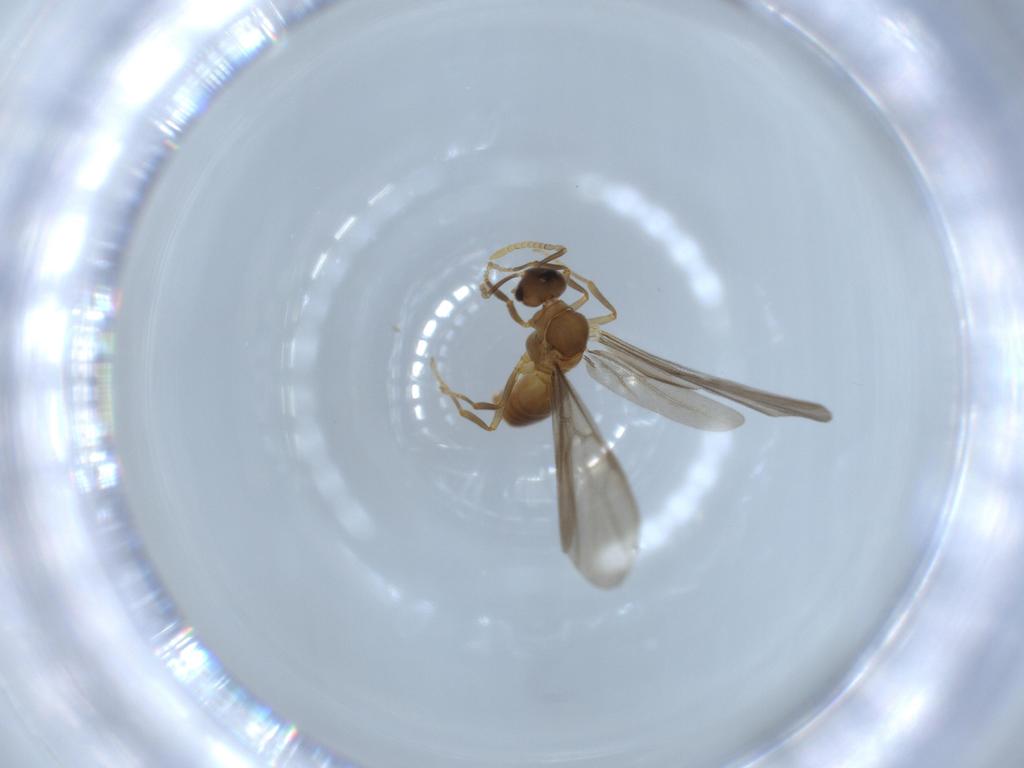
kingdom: Animalia
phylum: Arthropoda
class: Insecta
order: Hymenoptera
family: Formicidae
